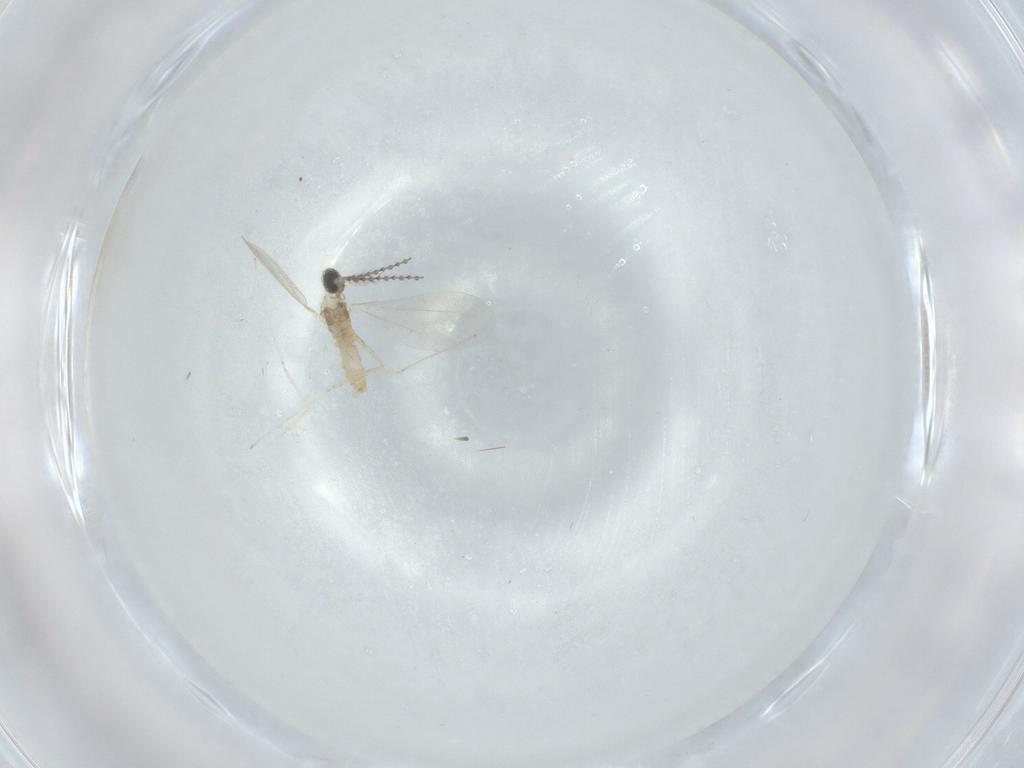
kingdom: Animalia
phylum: Arthropoda
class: Insecta
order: Diptera
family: Cecidomyiidae
